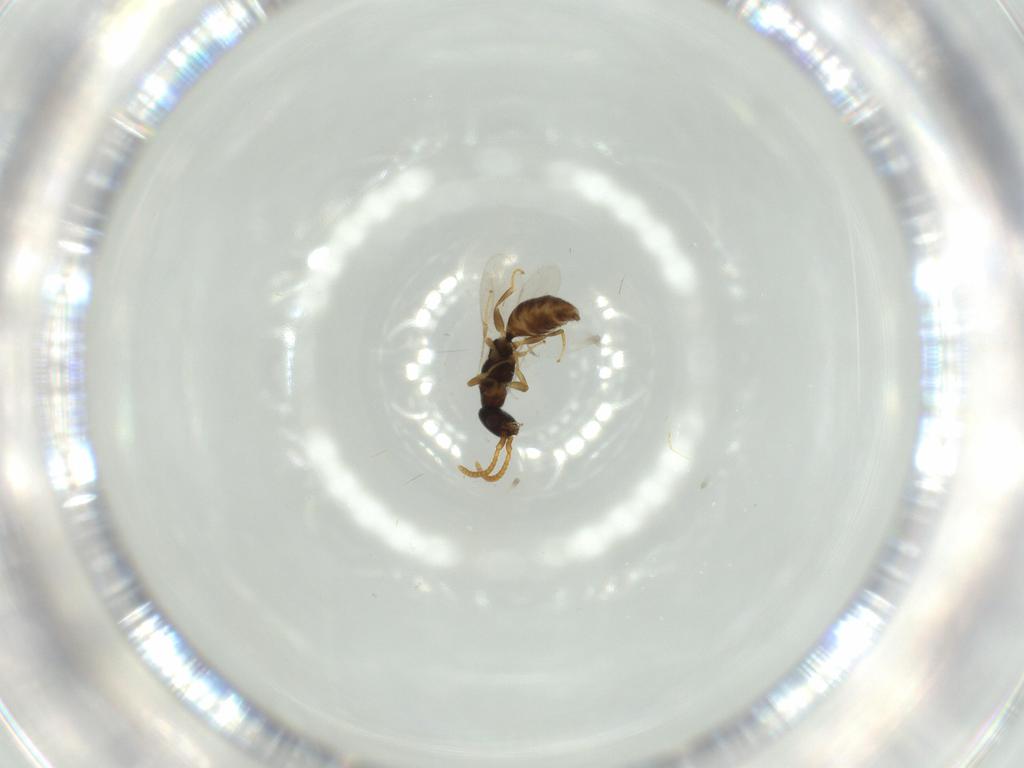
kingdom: Animalia
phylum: Arthropoda
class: Insecta
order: Hymenoptera
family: Bethylidae
